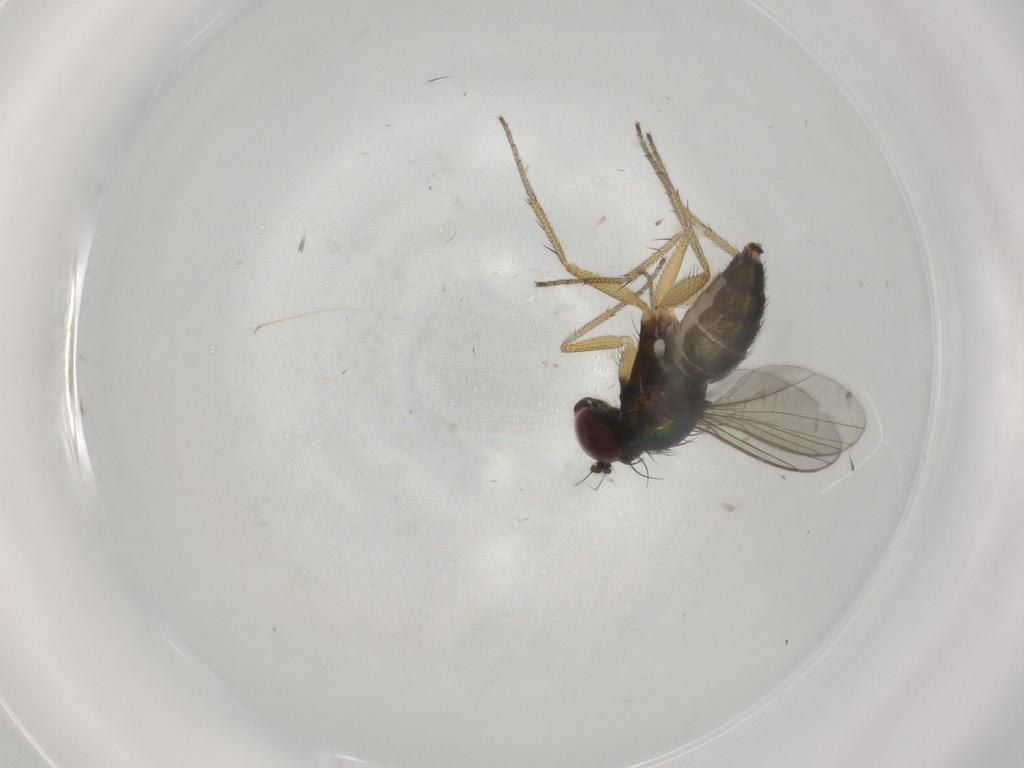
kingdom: Animalia
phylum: Arthropoda
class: Insecta
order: Diptera
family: Dolichopodidae
